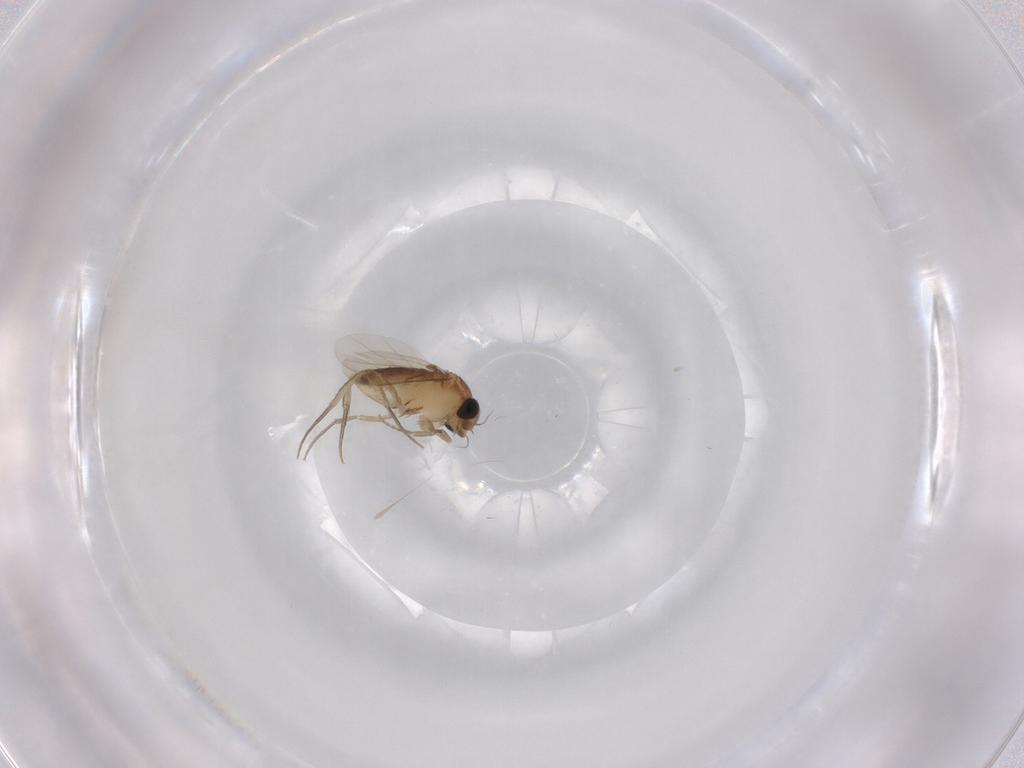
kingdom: Animalia
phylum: Arthropoda
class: Insecta
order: Diptera
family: Phoridae
